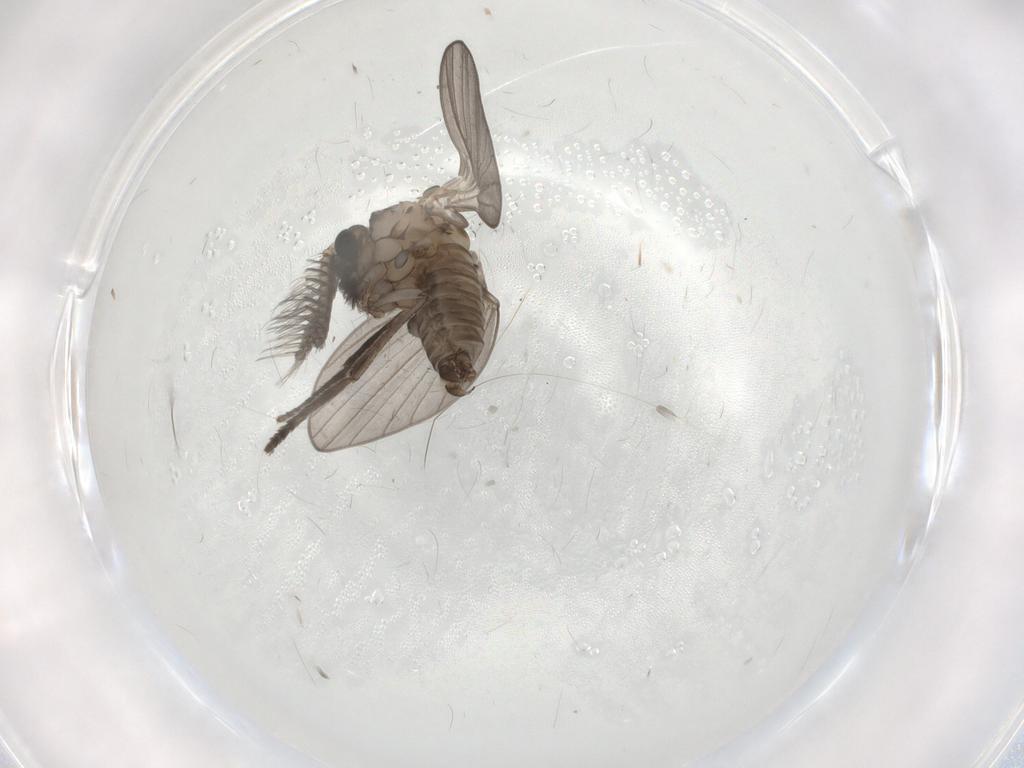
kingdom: Animalia
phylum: Arthropoda
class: Insecta
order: Diptera
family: Psychodidae
